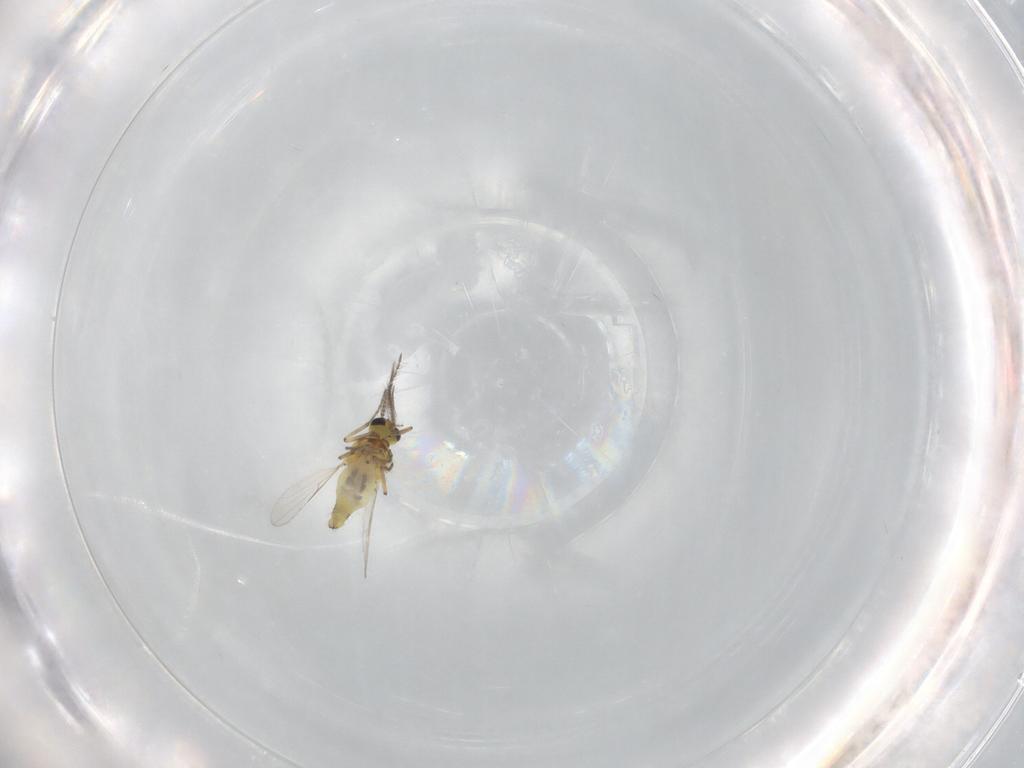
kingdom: Animalia
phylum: Arthropoda
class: Insecta
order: Diptera
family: Ceratopogonidae
